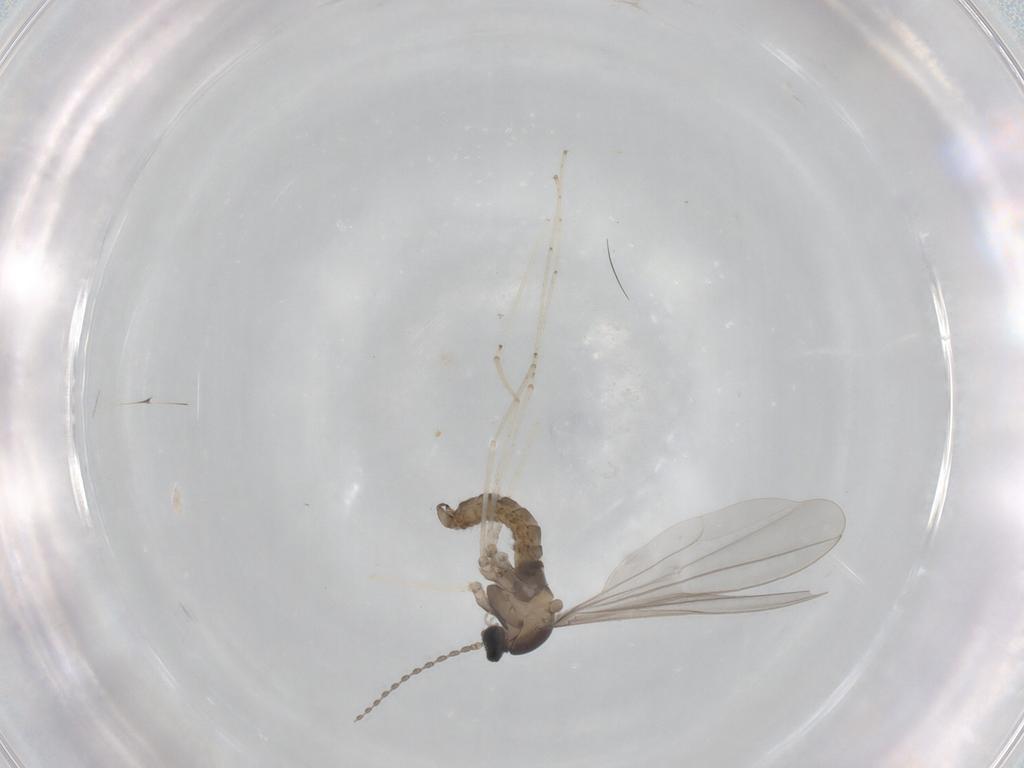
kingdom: Animalia
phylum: Arthropoda
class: Insecta
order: Diptera
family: Cecidomyiidae
